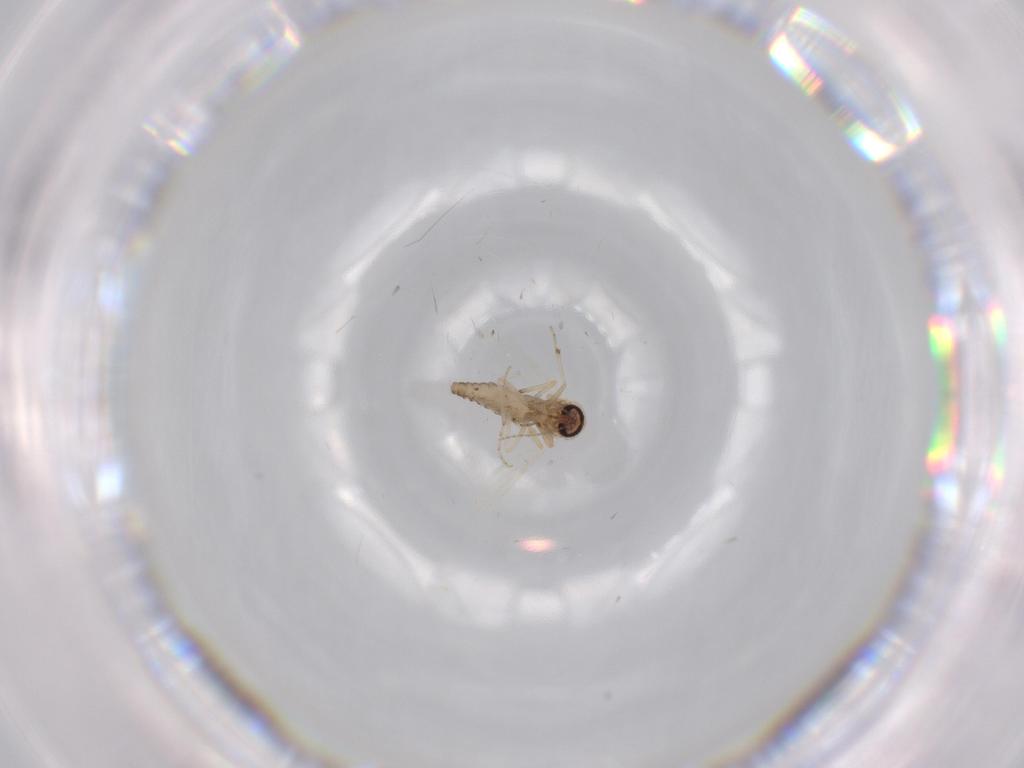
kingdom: Animalia
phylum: Arthropoda
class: Insecta
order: Diptera
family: Ceratopogonidae
